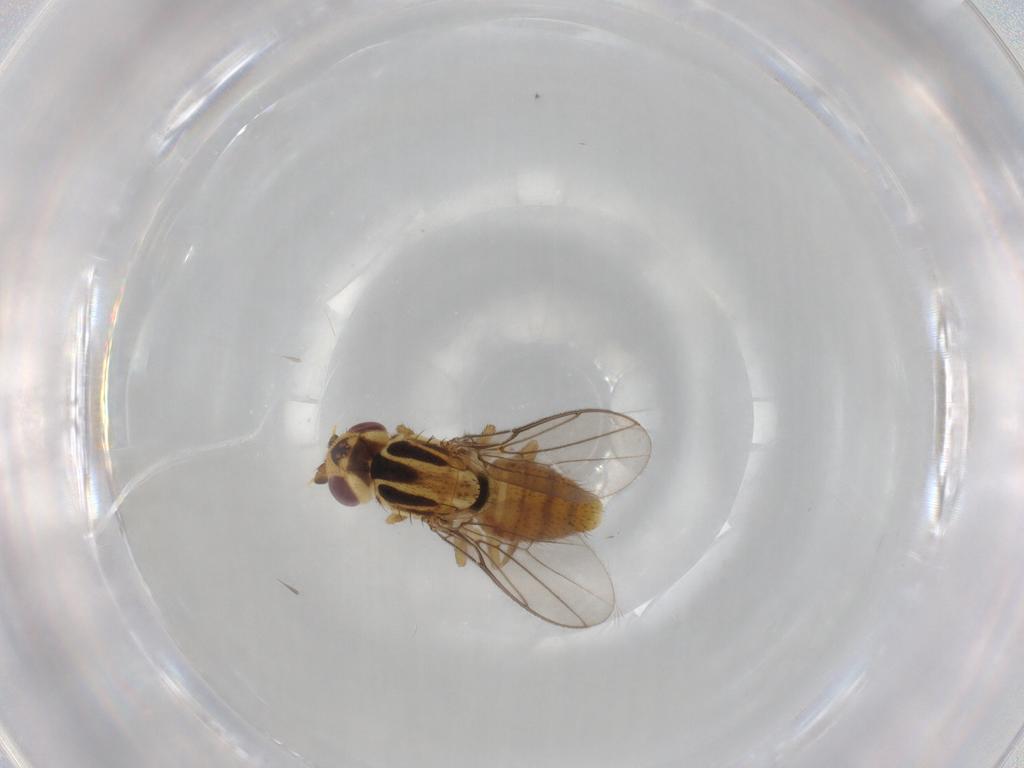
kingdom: Animalia
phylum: Arthropoda
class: Insecta
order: Diptera
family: Chloropidae
